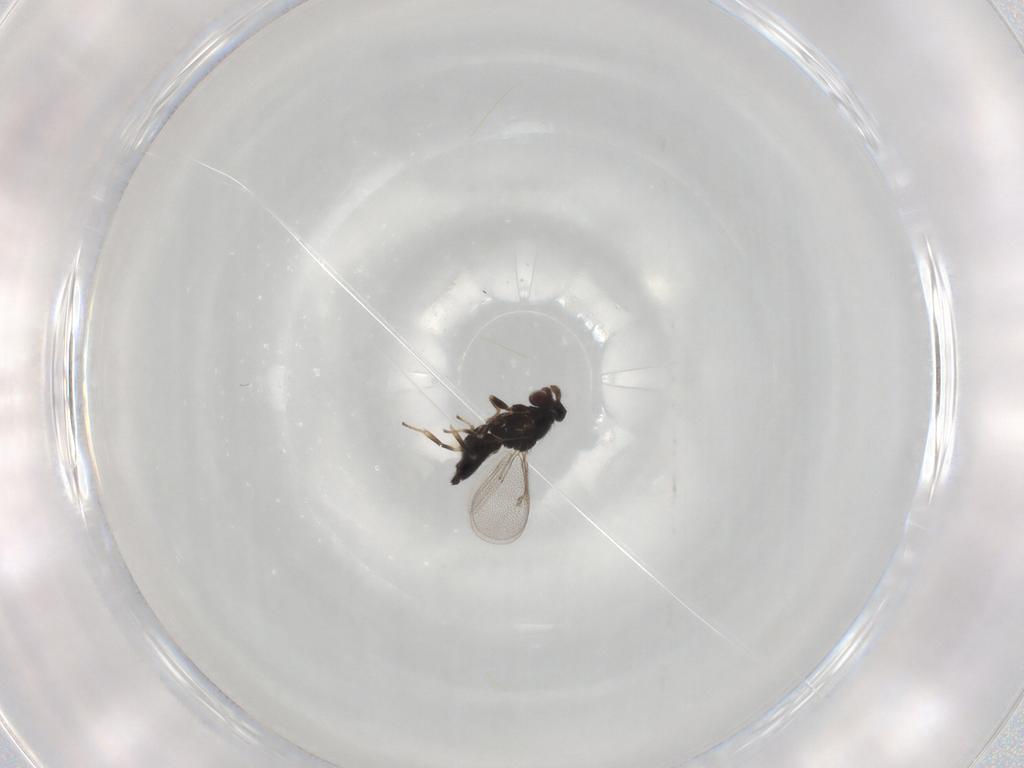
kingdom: Animalia
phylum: Arthropoda
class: Insecta
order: Hymenoptera
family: Eulophidae
